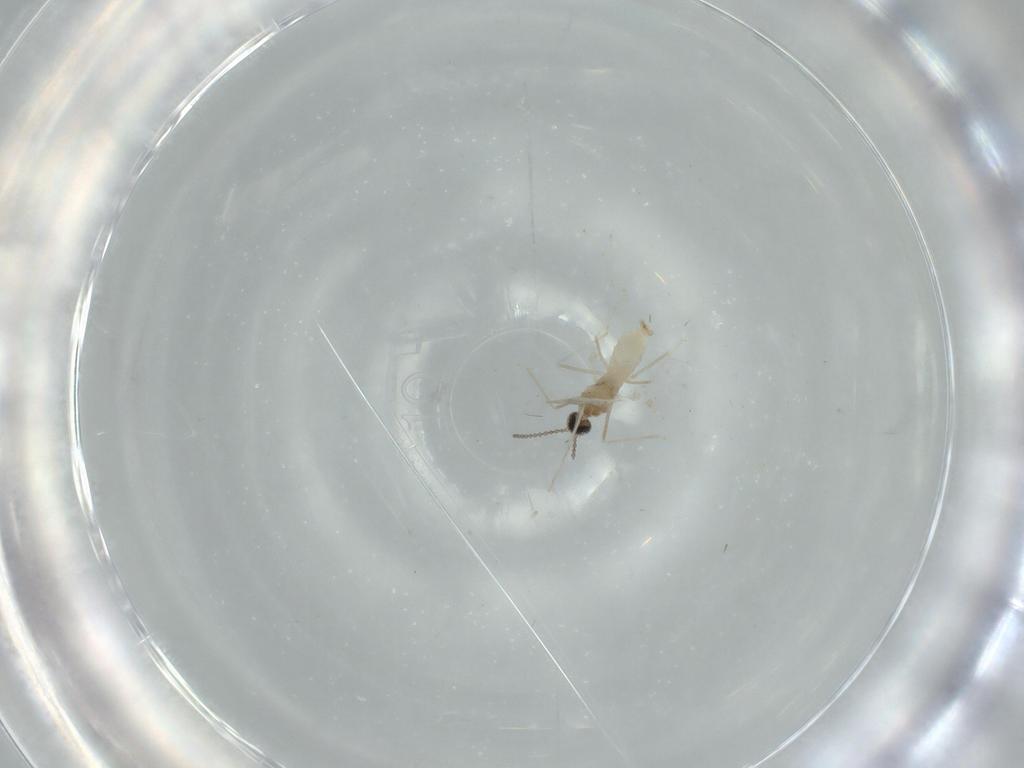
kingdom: Animalia
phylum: Arthropoda
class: Insecta
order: Diptera
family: Cecidomyiidae
